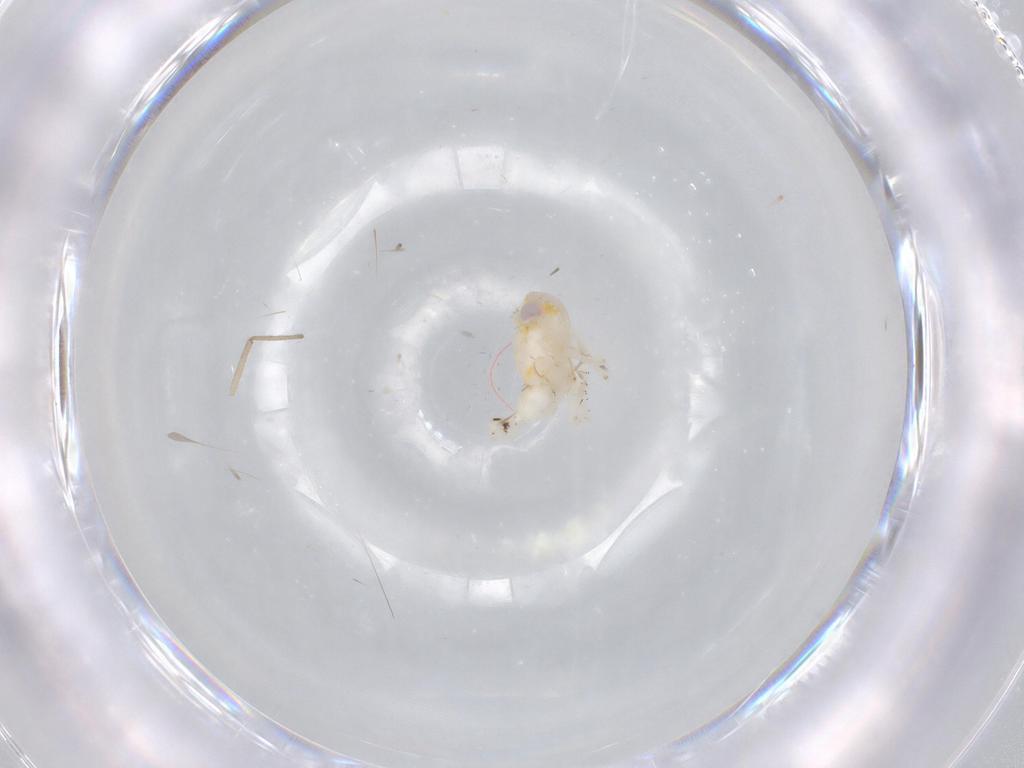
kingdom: Animalia
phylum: Arthropoda
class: Insecta
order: Hemiptera
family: Nogodinidae
